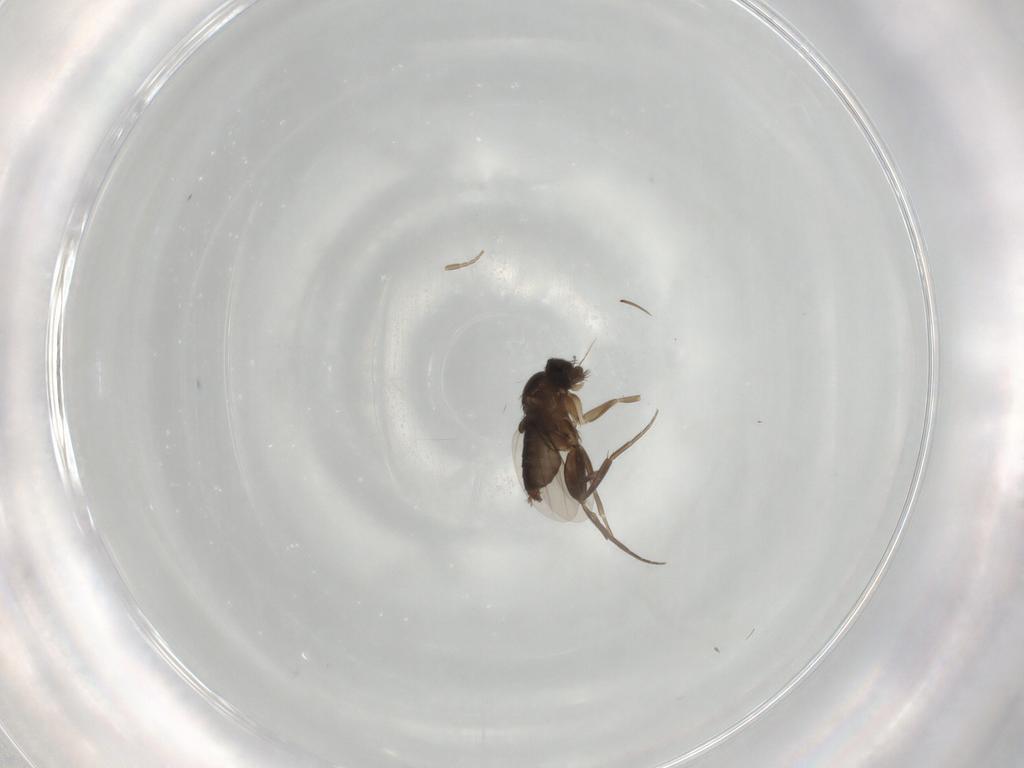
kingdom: Animalia
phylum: Arthropoda
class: Insecta
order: Diptera
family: Phoridae
